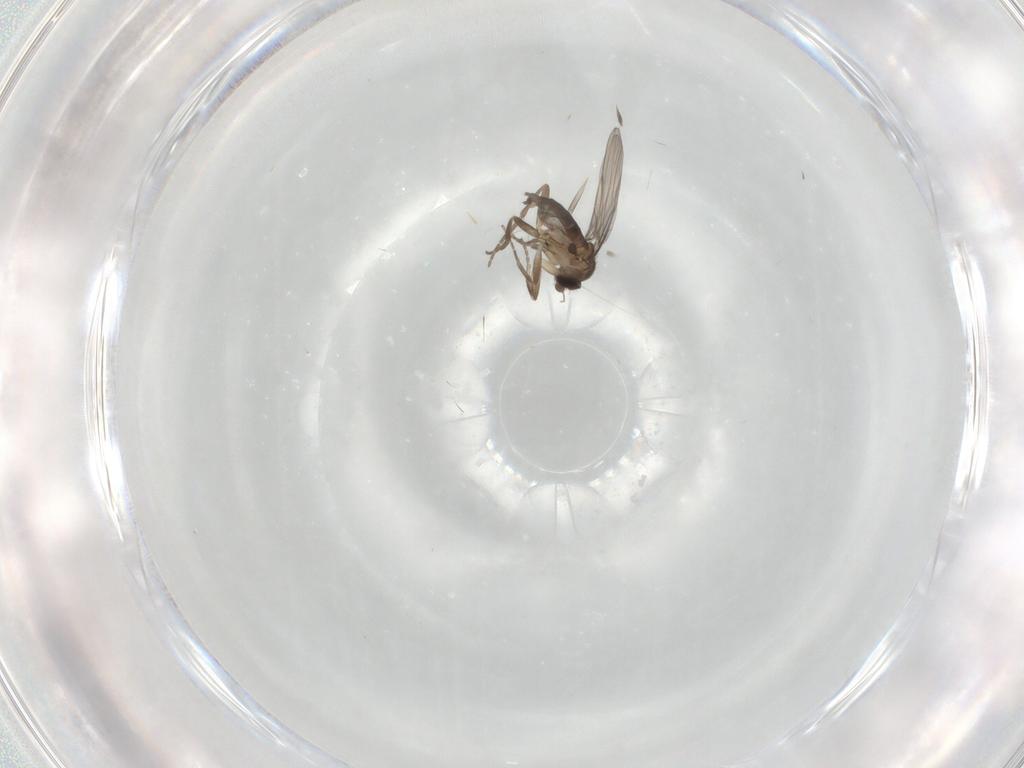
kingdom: Animalia
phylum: Arthropoda
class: Insecta
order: Diptera
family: Phoridae
